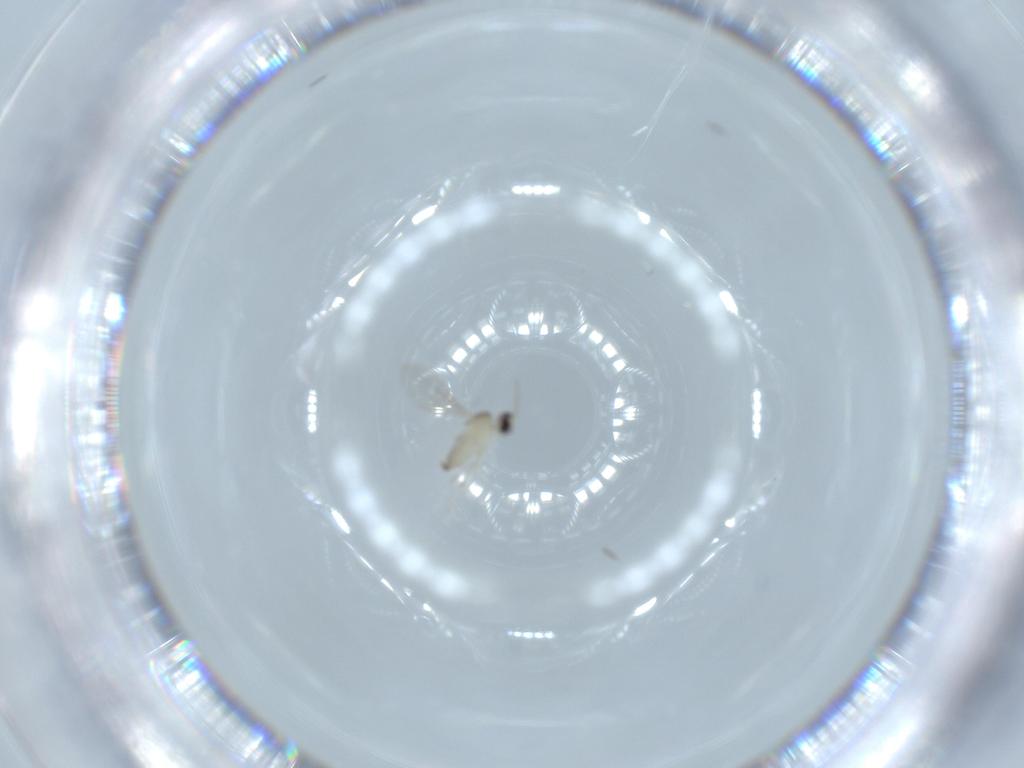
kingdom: Animalia
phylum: Arthropoda
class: Insecta
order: Diptera
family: Cecidomyiidae
